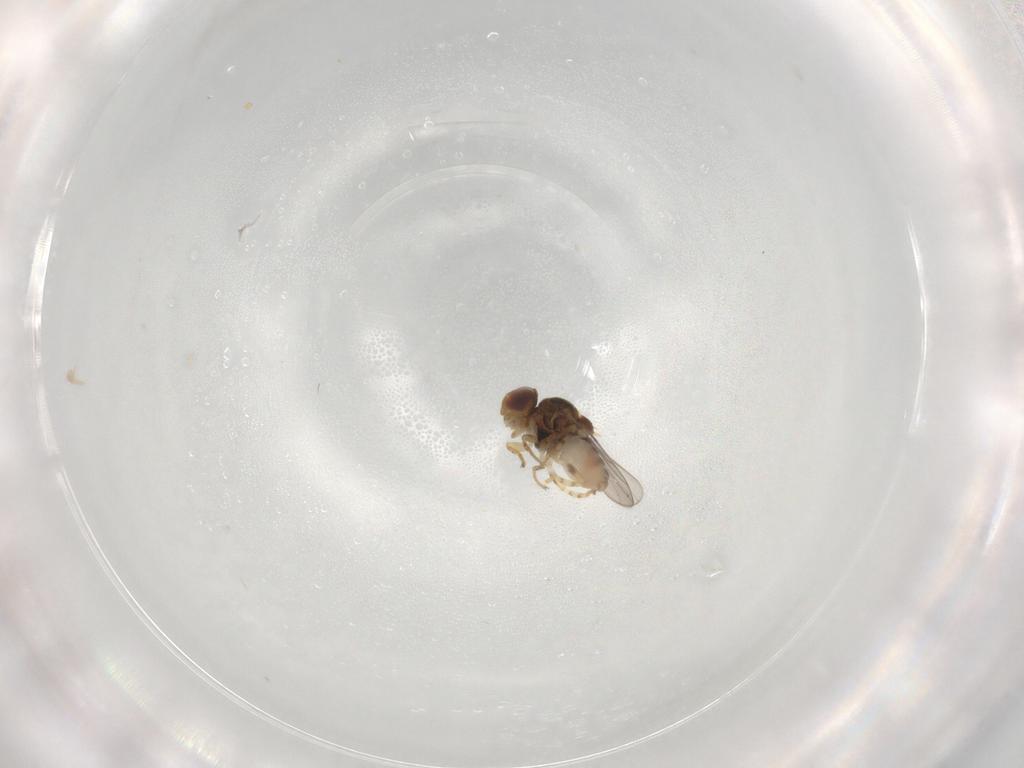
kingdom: Animalia
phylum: Arthropoda
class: Insecta
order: Diptera
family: Chloropidae
